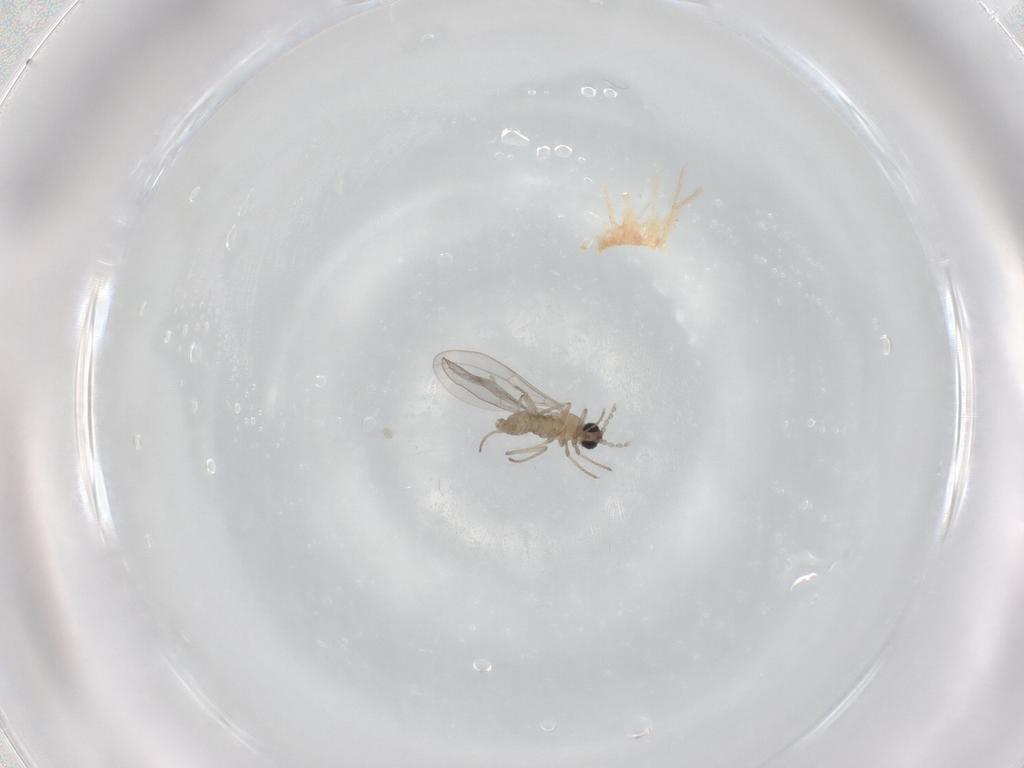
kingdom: Animalia
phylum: Arthropoda
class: Insecta
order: Diptera
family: Cecidomyiidae
